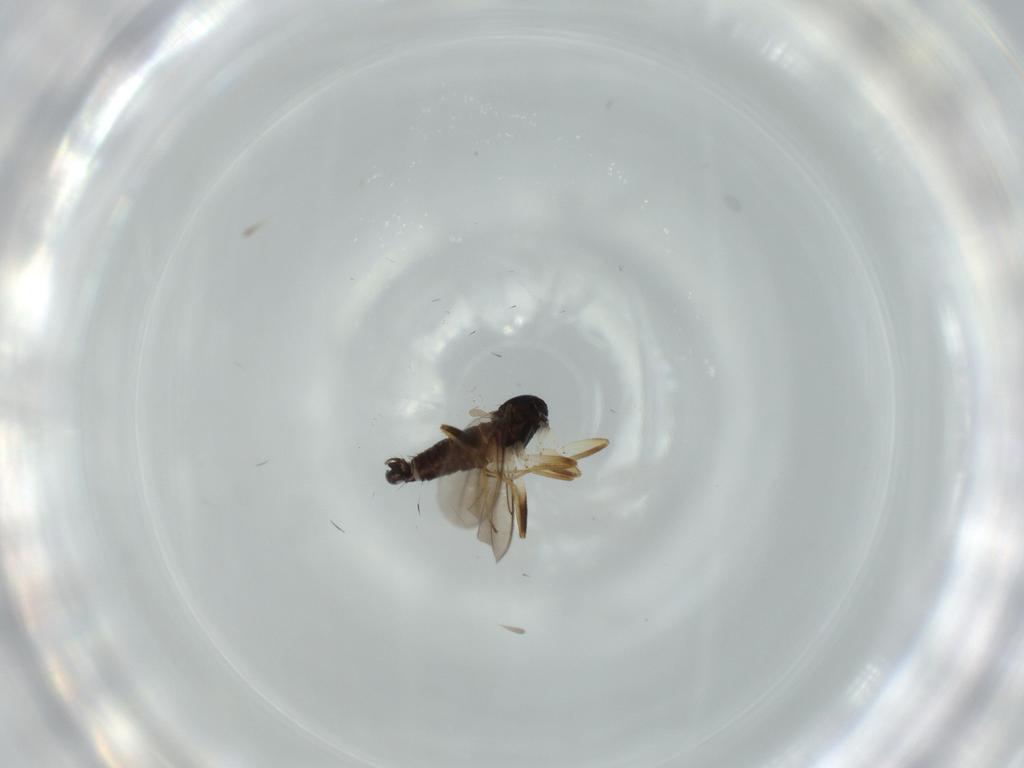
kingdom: Animalia
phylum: Arthropoda
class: Insecta
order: Diptera
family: Hybotidae
